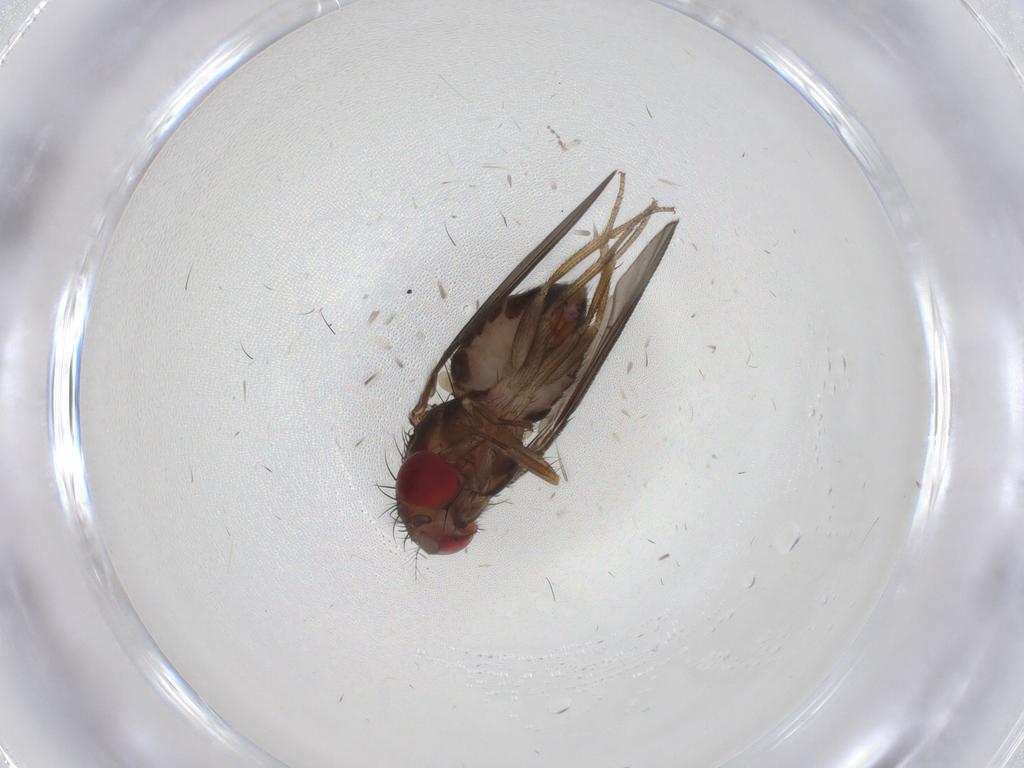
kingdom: Animalia
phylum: Arthropoda
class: Insecta
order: Diptera
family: Drosophilidae
